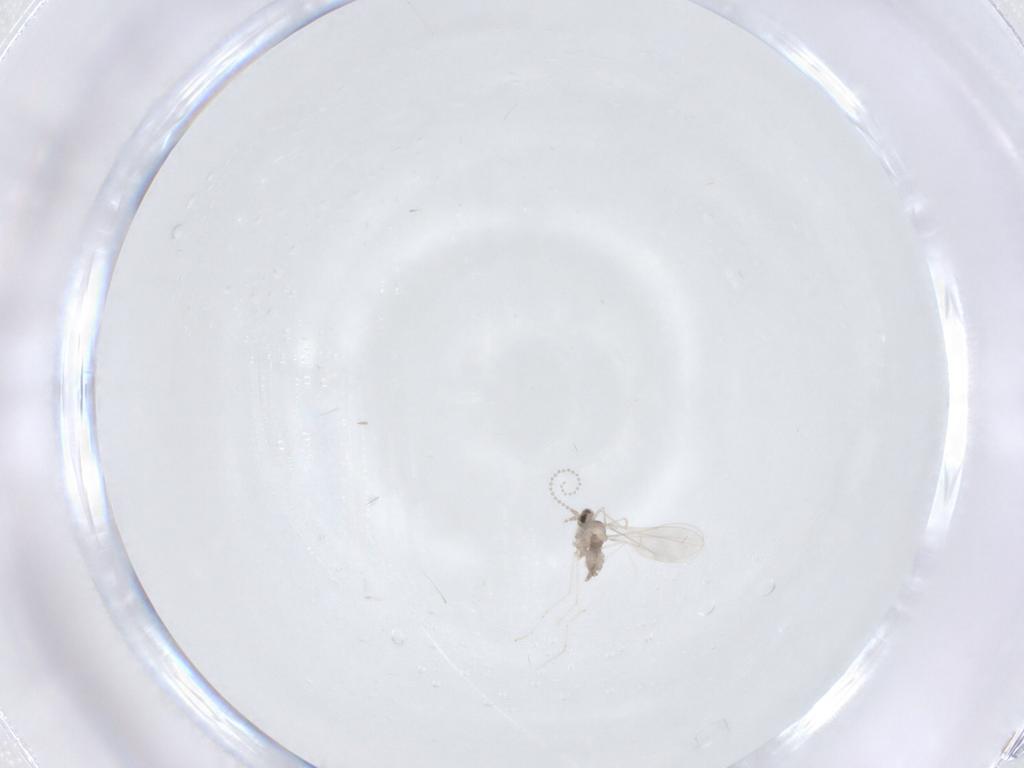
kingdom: Animalia
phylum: Arthropoda
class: Insecta
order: Diptera
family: Cecidomyiidae
